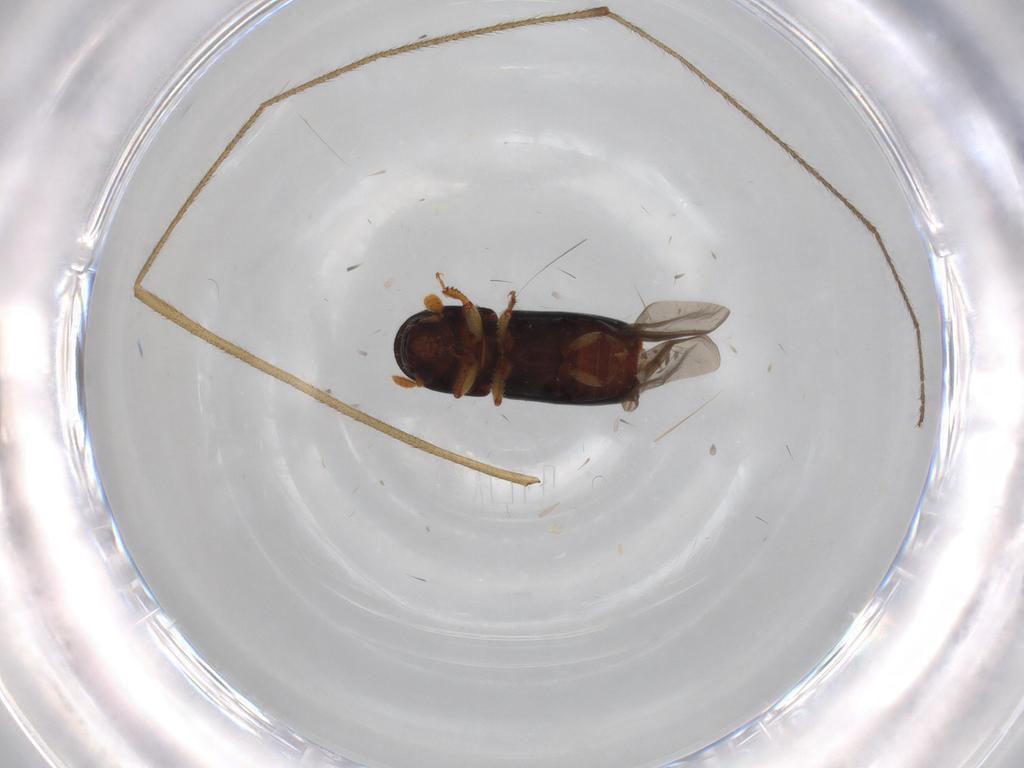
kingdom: Animalia
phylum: Arthropoda
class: Insecta
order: Coleoptera
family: Curculionidae
